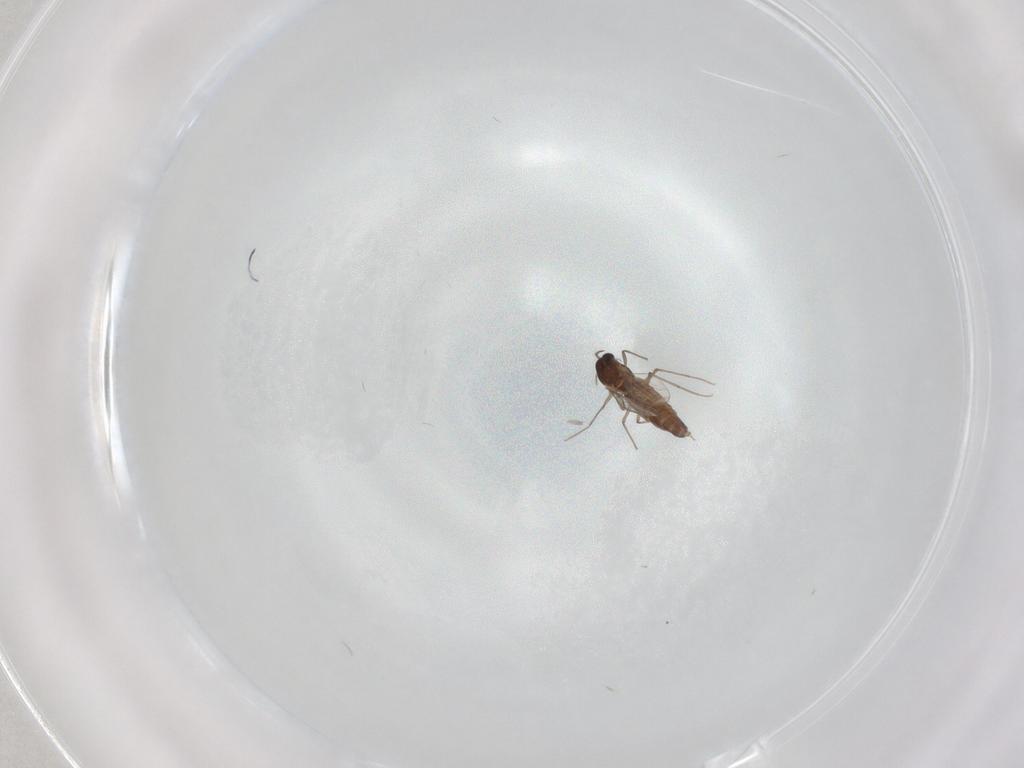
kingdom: Animalia
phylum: Arthropoda
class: Insecta
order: Diptera
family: Chironomidae
